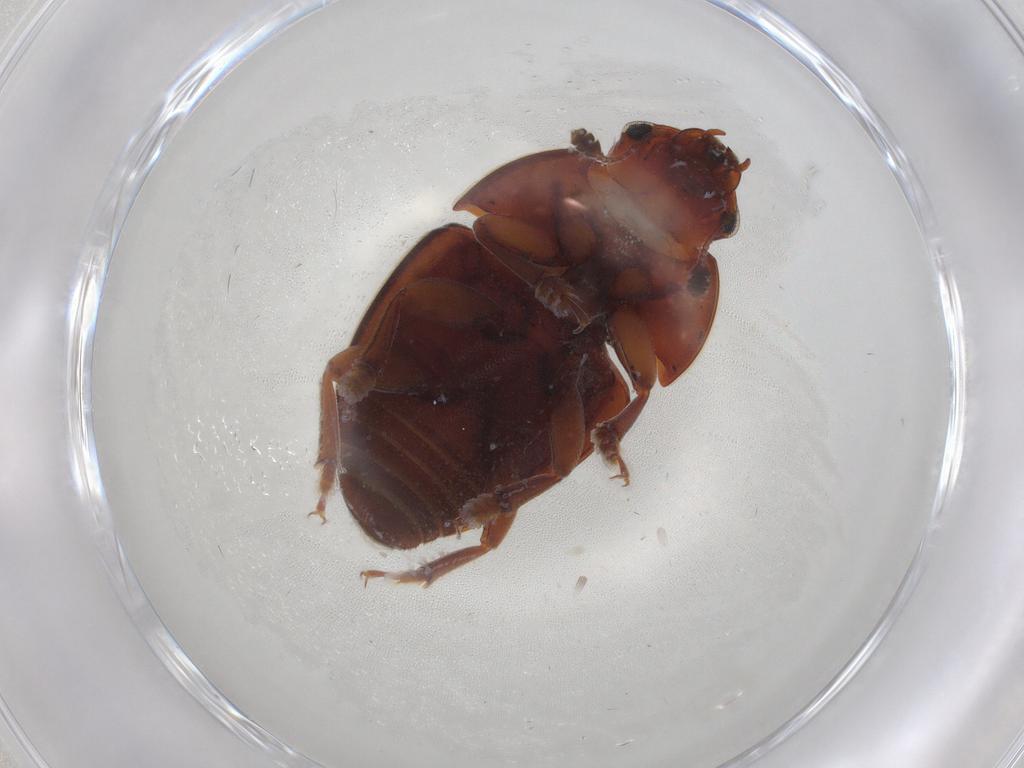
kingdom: Animalia
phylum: Arthropoda
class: Insecta
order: Coleoptera
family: Nitidulidae
